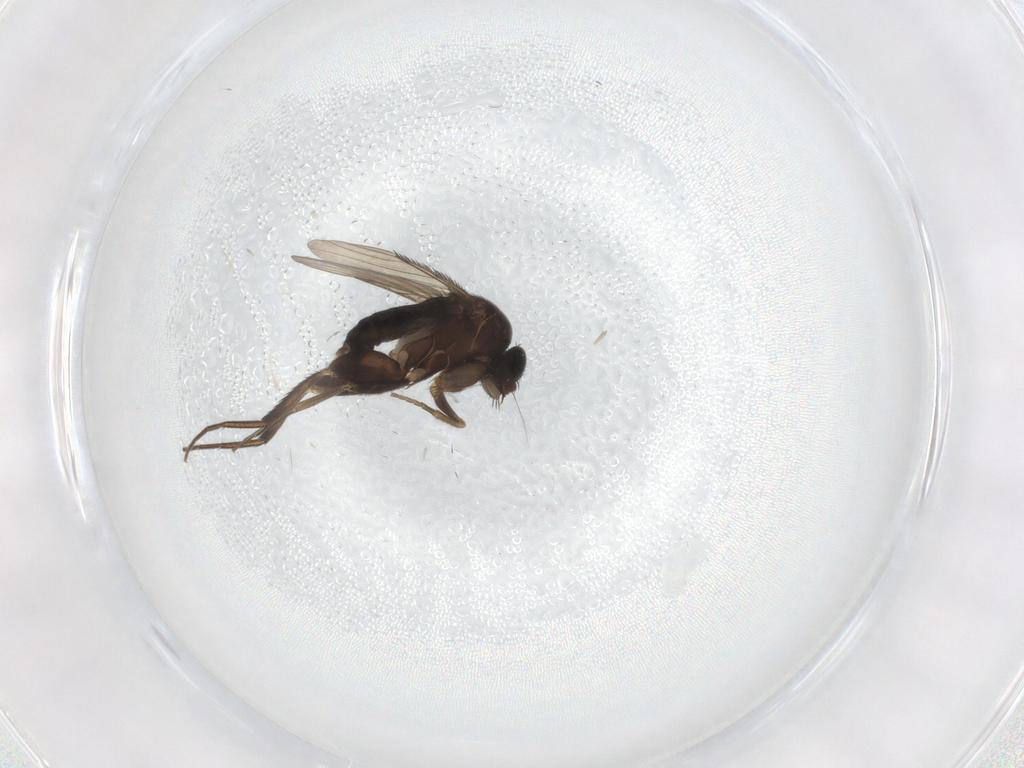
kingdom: Animalia
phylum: Arthropoda
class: Insecta
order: Diptera
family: Phoridae
